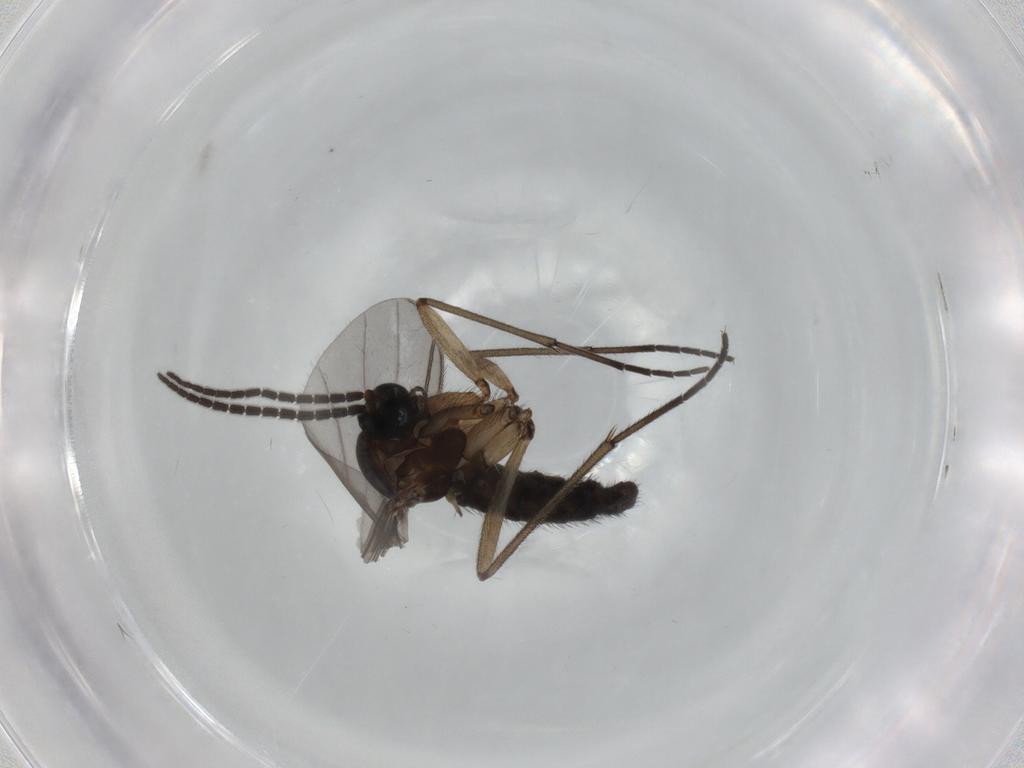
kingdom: Animalia
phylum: Arthropoda
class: Insecta
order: Diptera
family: Sciaridae
